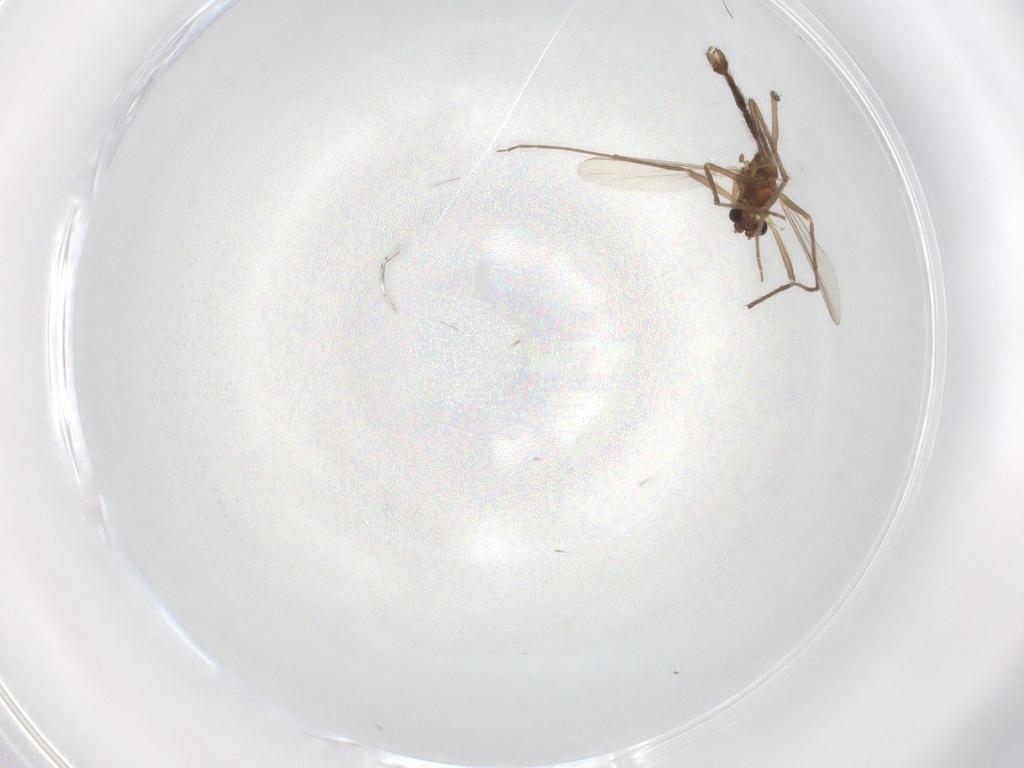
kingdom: Animalia
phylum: Arthropoda
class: Insecta
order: Diptera
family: Chironomidae
